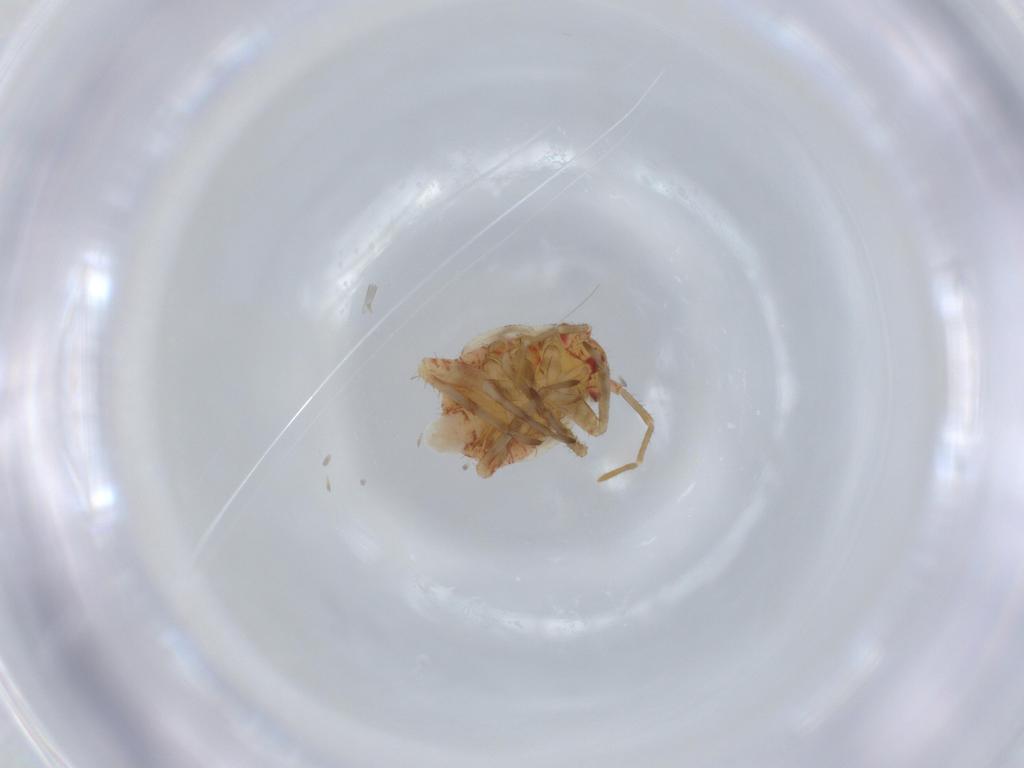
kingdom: Animalia
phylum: Arthropoda
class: Insecta
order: Hemiptera
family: Miridae
